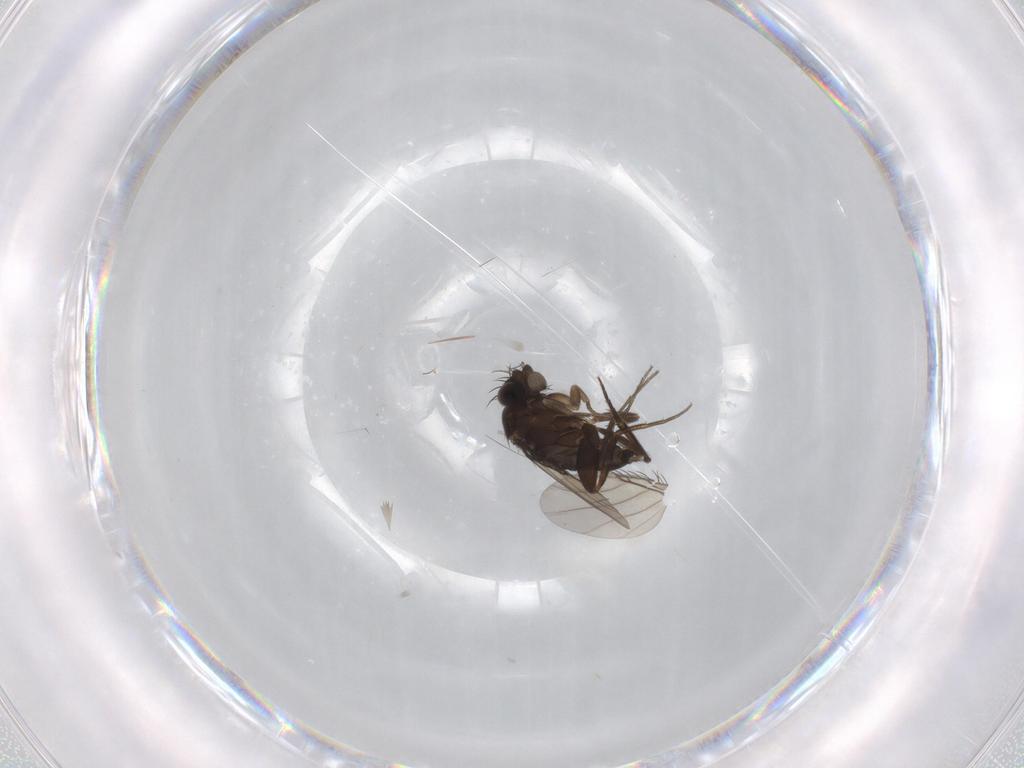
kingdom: Animalia
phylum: Arthropoda
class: Insecta
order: Diptera
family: Phoridae
